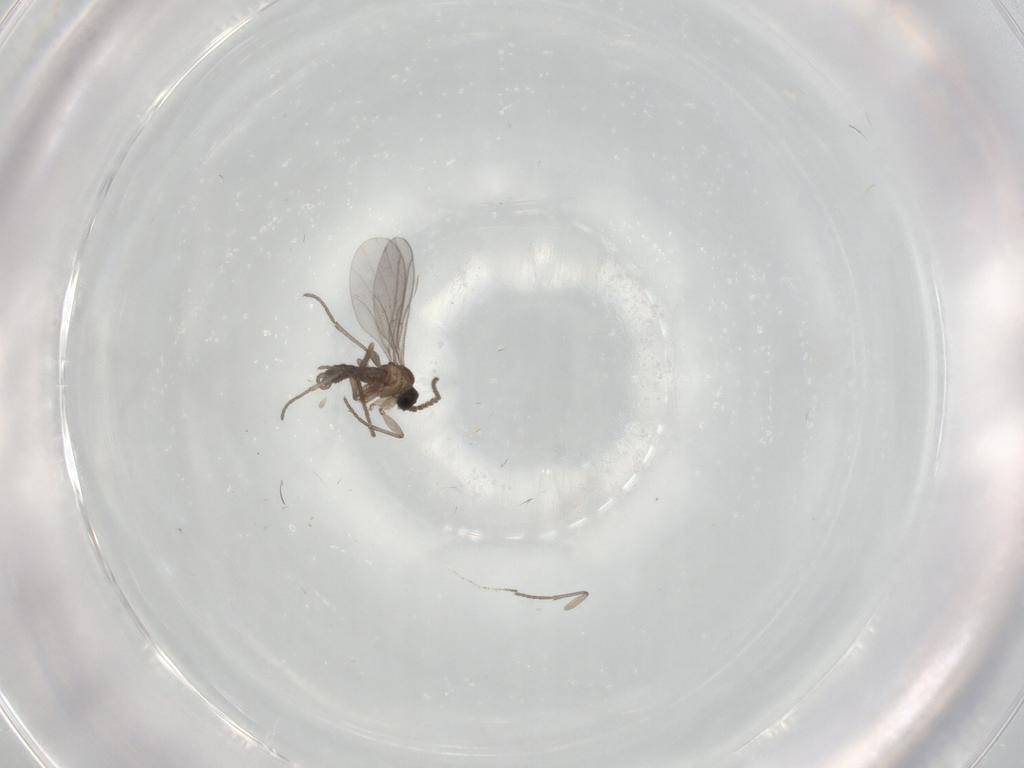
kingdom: Animalia
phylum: Arthropoda
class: Insecta
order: Diptera
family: Sciaridae
